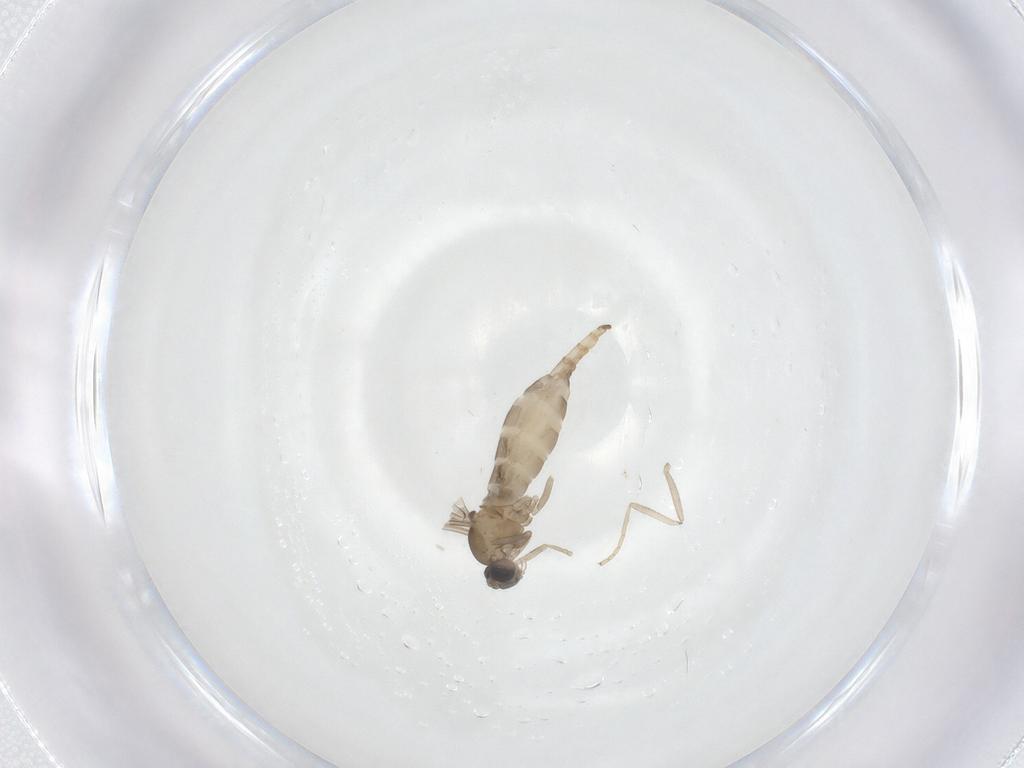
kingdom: Animalia
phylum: Arthropoda
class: Insecta
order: Diptera
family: Cecidomyiidae
